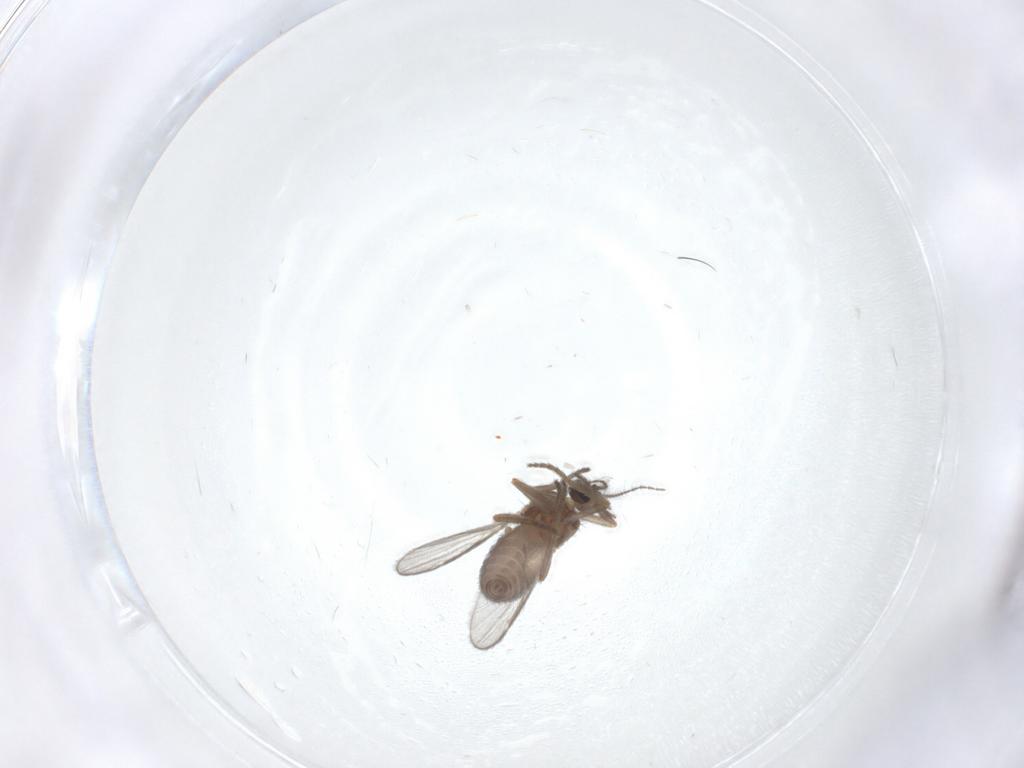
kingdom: Animalia
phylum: Arthropoda
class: Insecta
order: Diptera
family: Ceratopogonidae
